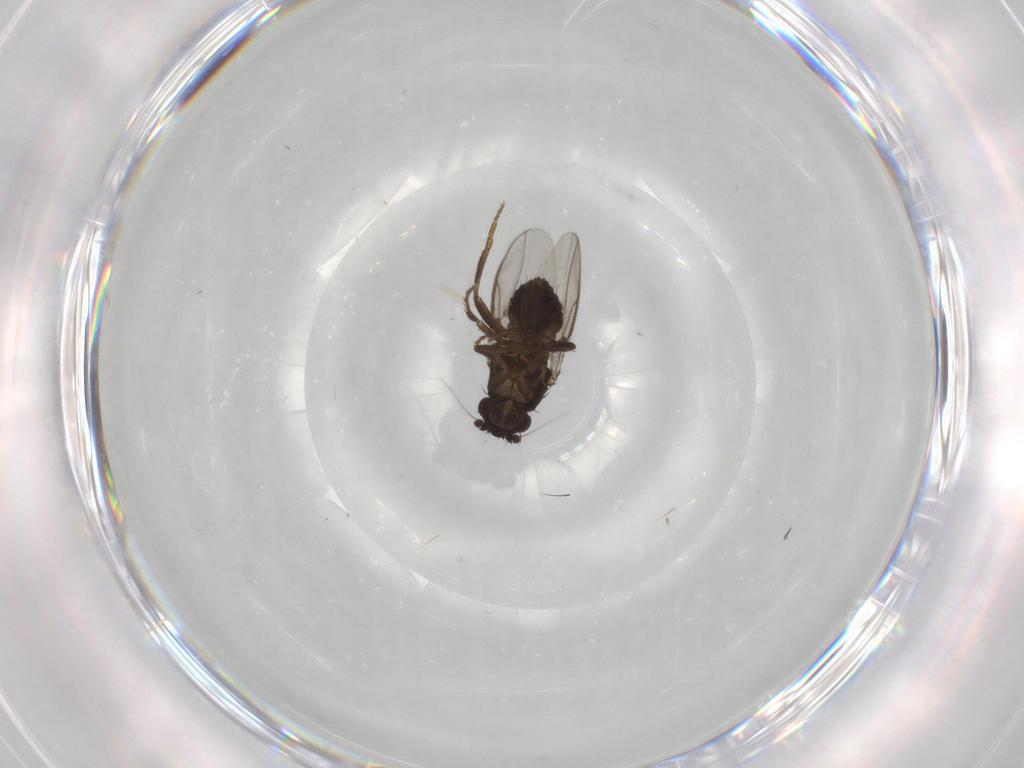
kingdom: Animalia
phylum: Arthropoda
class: Insecta
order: Diptera
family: Sphaeroceridae
